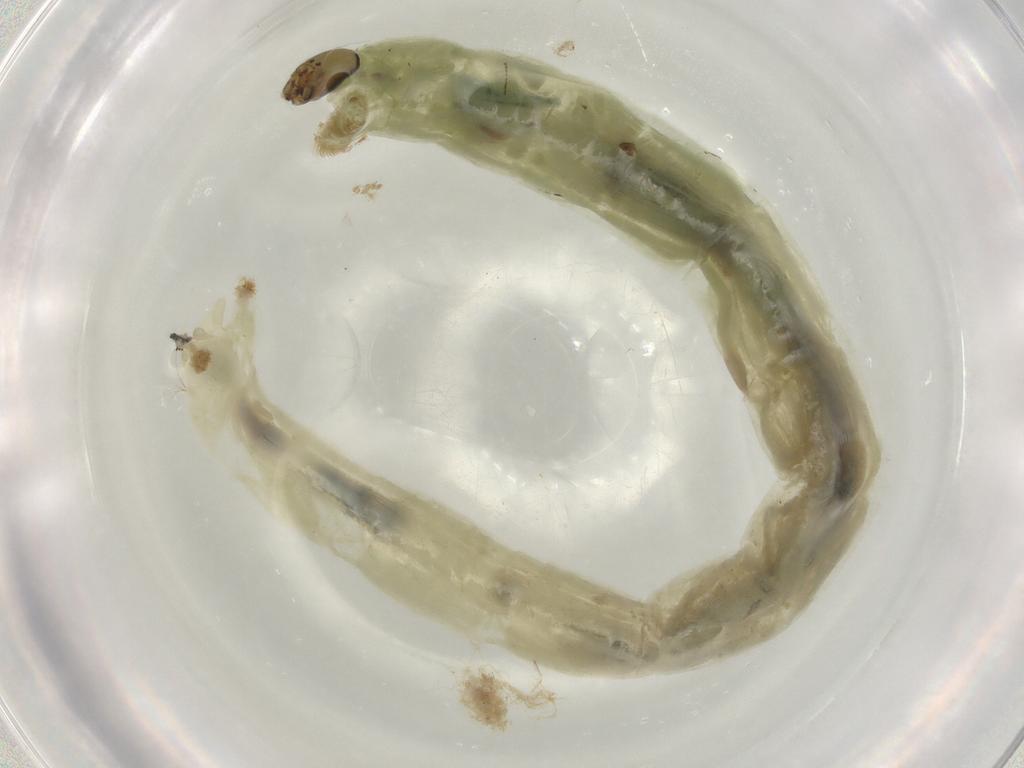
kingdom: Animalia
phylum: Arthropoda
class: Insecta
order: Diptera
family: Chironomidae
